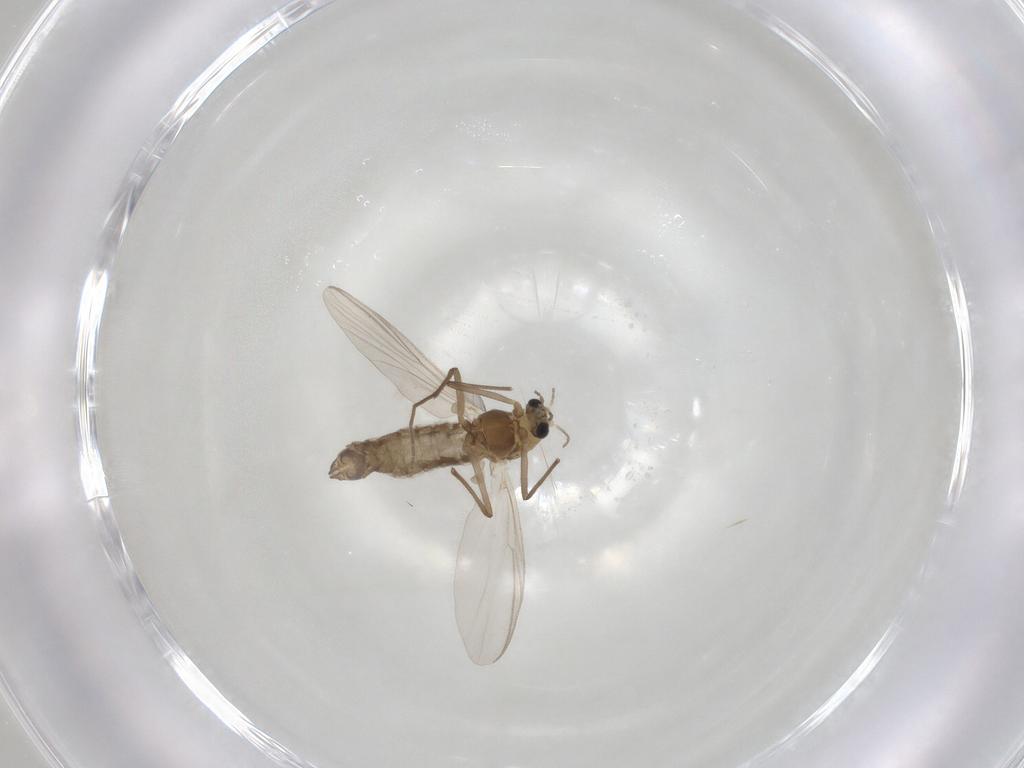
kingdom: Animalia
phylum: Arthropoda
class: Insecta
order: Diptera
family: Chironomidae
